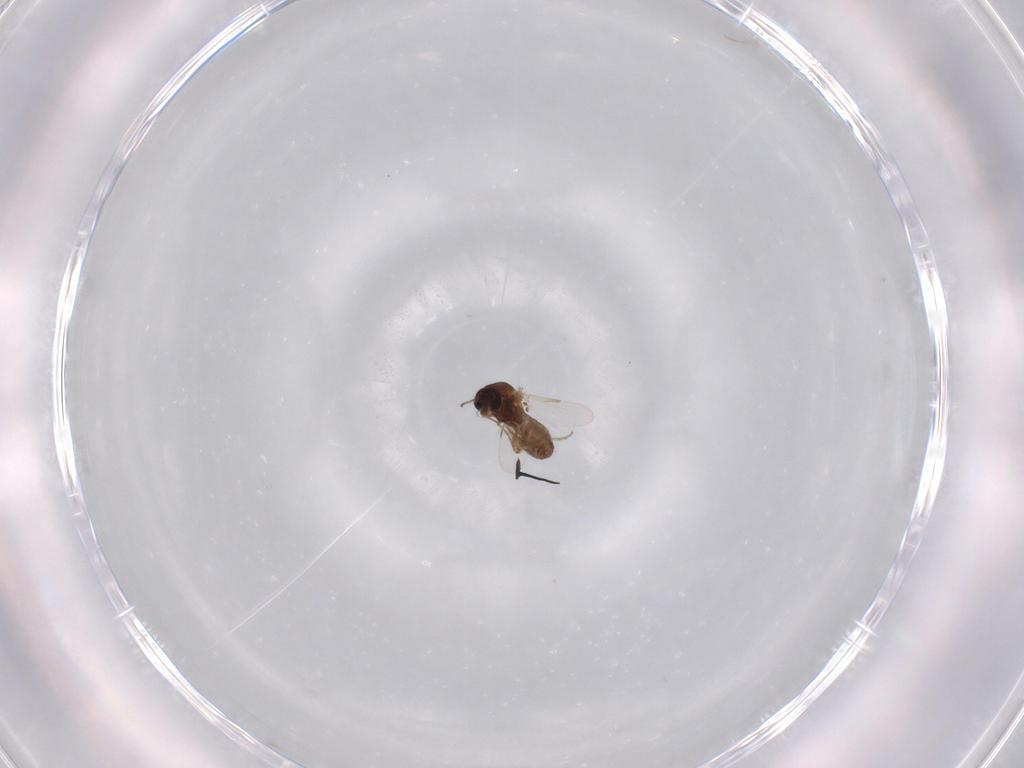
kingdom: Animalia
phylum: Arthropoda
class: Insecta
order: Diptera
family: Ceratopogonidae
